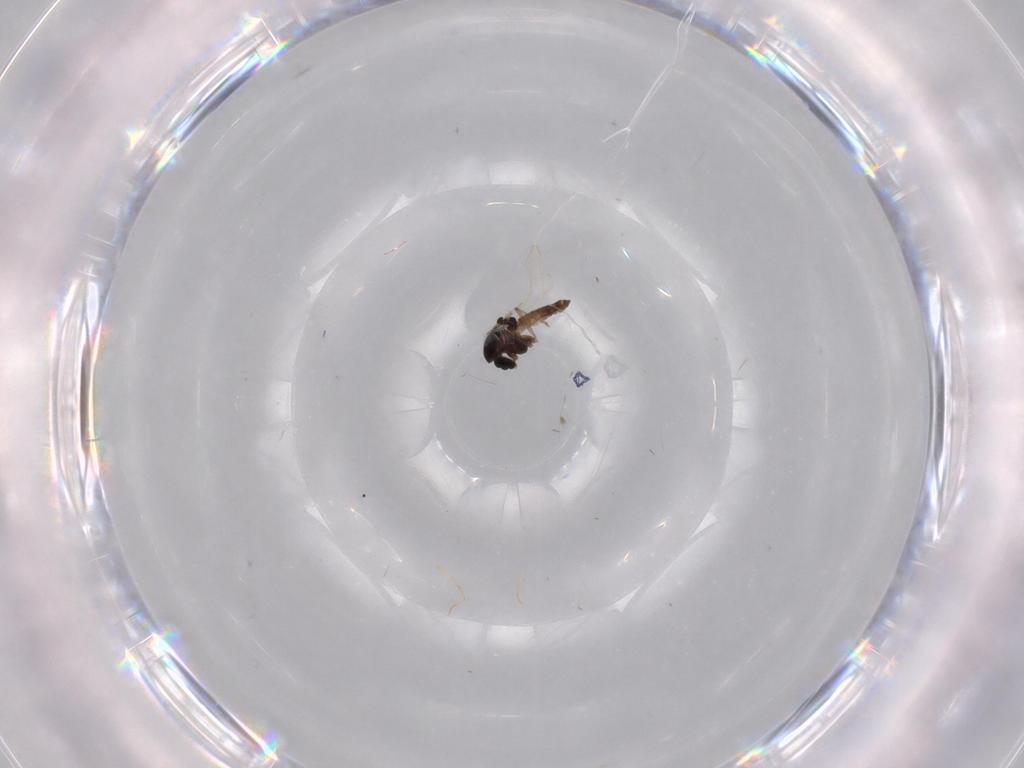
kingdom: Animalia
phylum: Arthropoda
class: Insecta
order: Diptera
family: Chironomidae
